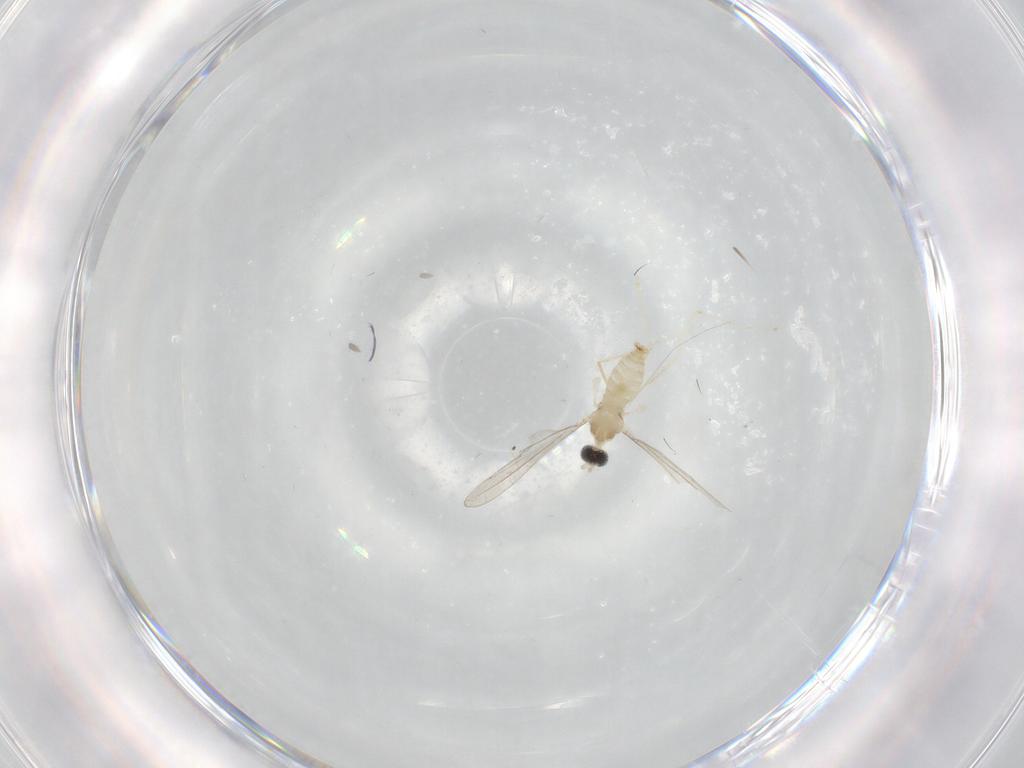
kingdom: Animalia
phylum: Arthropoda
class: Insecta
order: Diptera
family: Cecidomyiidae
